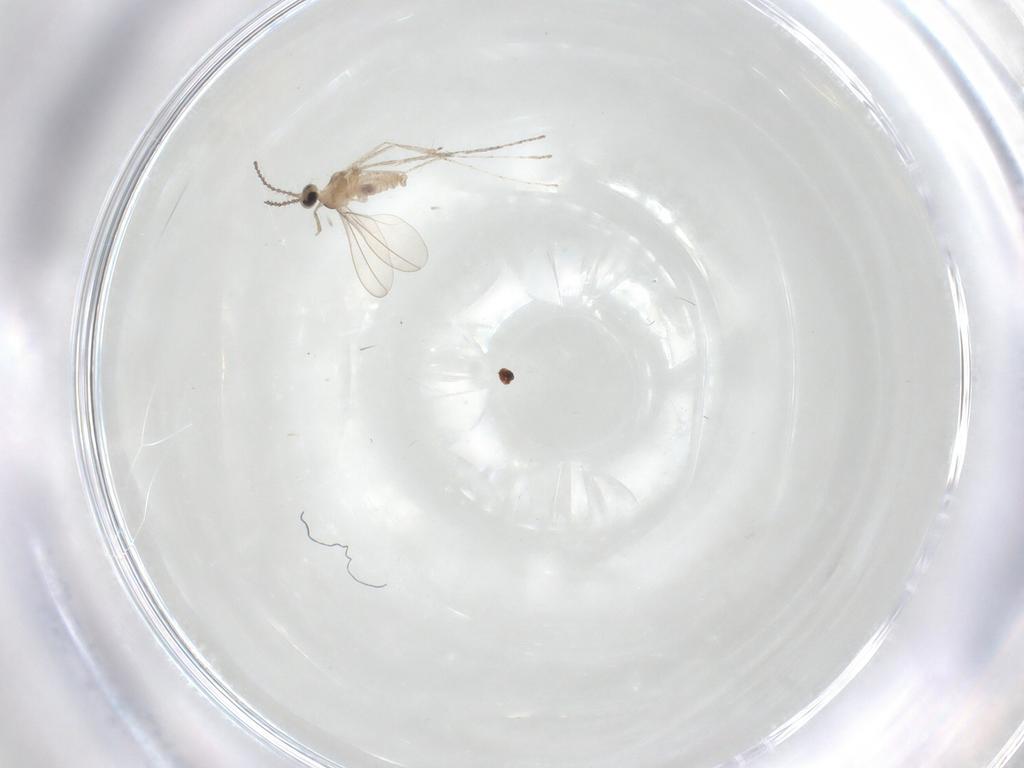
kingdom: Animalia
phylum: Arthropoda
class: Insecta
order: Diptera
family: Cecidomyiidae
